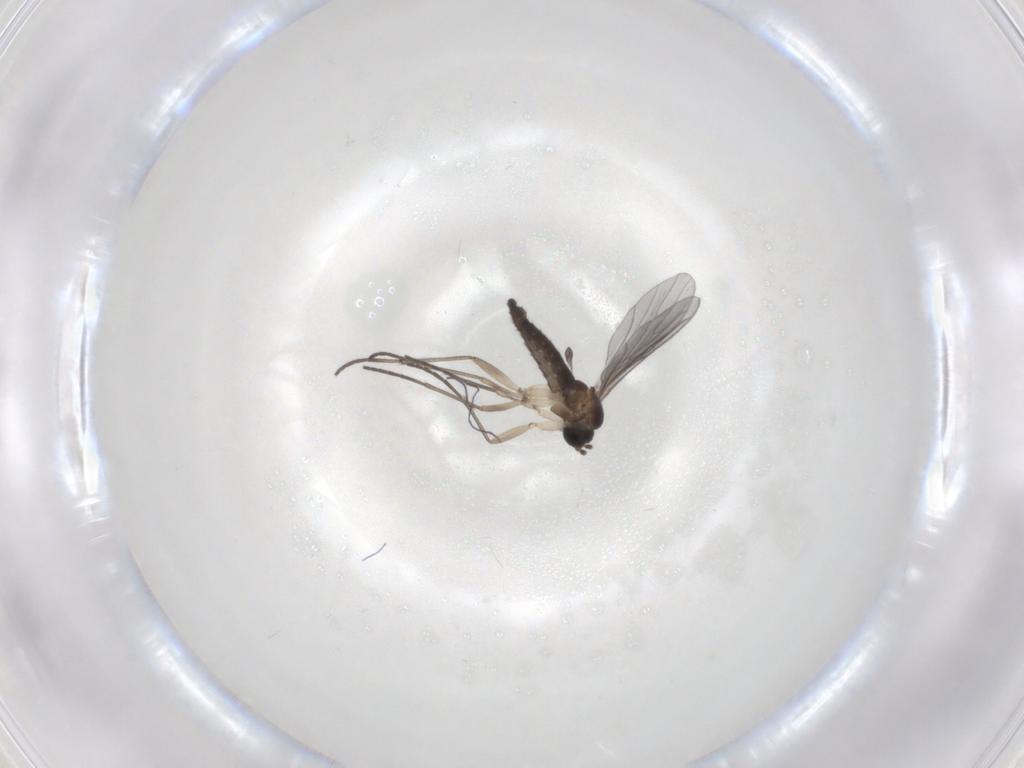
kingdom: Animalia
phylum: Arthropoda
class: Insecta
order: Diptera
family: Sciaridae
